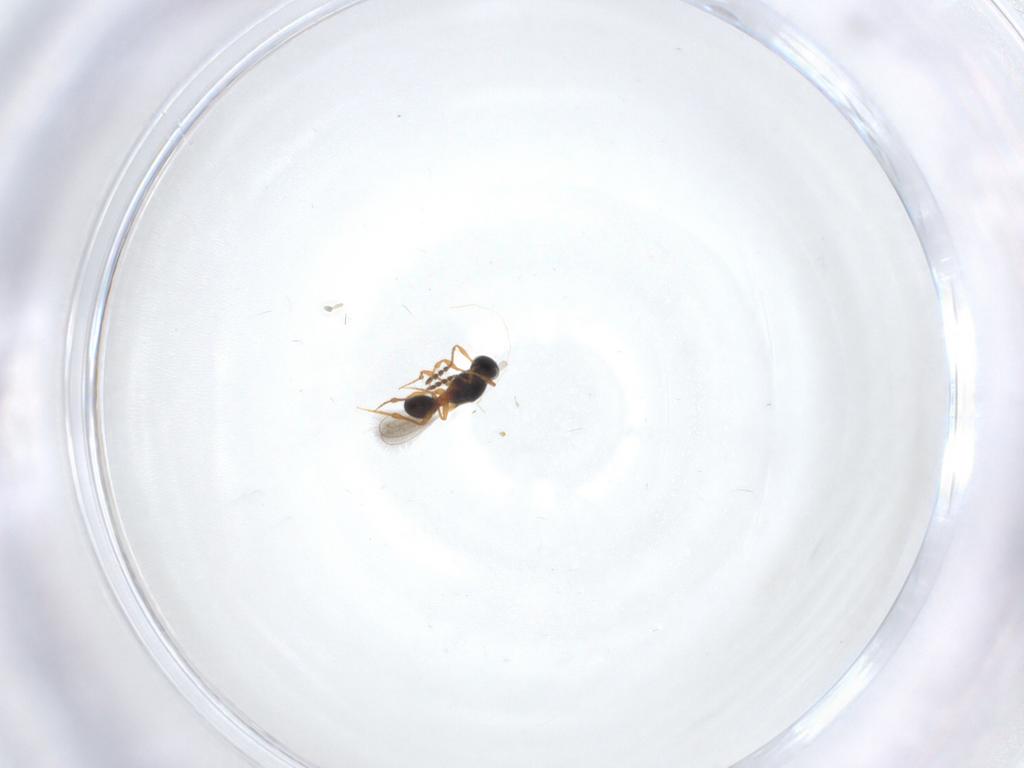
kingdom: Animalia
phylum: Arthropoda
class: Insecta
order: Hymenoptera
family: Platygastridae
